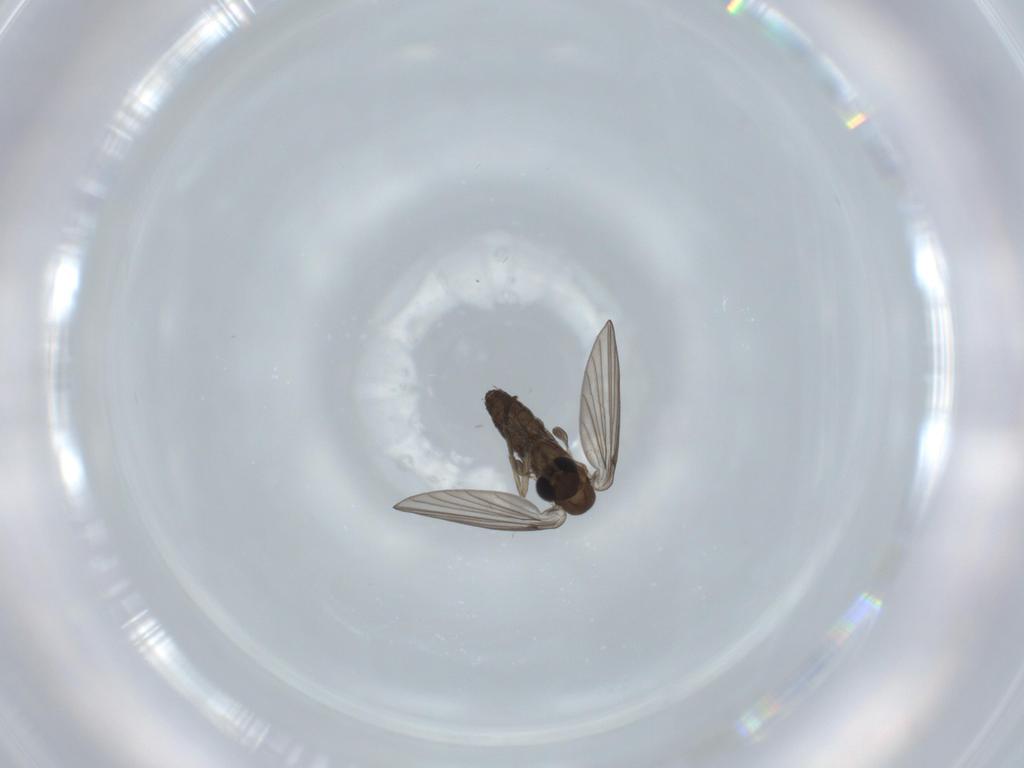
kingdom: Animalia
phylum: Arthropoda
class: Insecta
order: Diptera
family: Psychodidae
